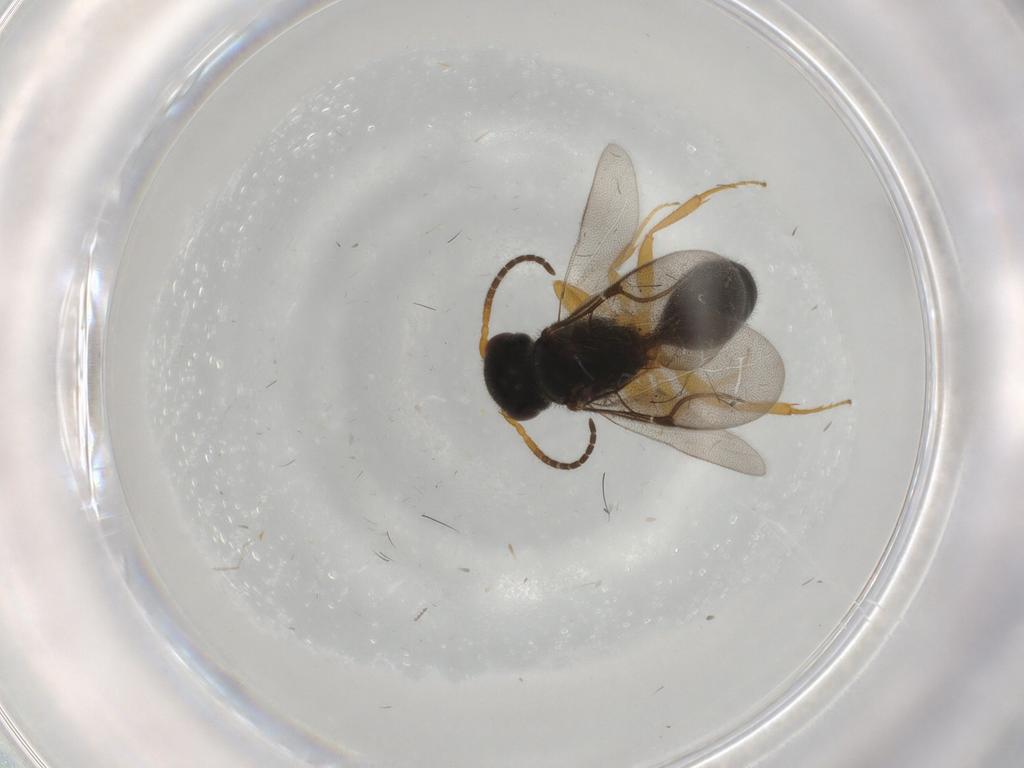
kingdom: Animalia
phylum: Arthropoda
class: Insecta
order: Hymenoptera
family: Bethylidae
